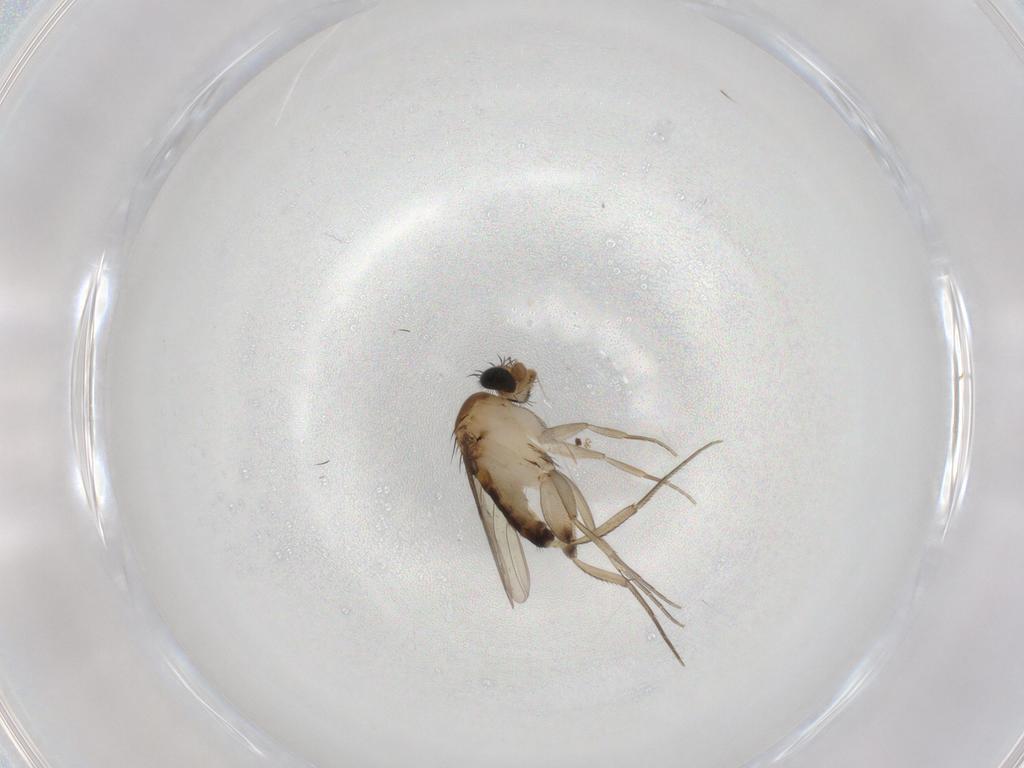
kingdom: Animalia
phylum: Arthropoda
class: Insecta
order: Diptera
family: Phoridae
